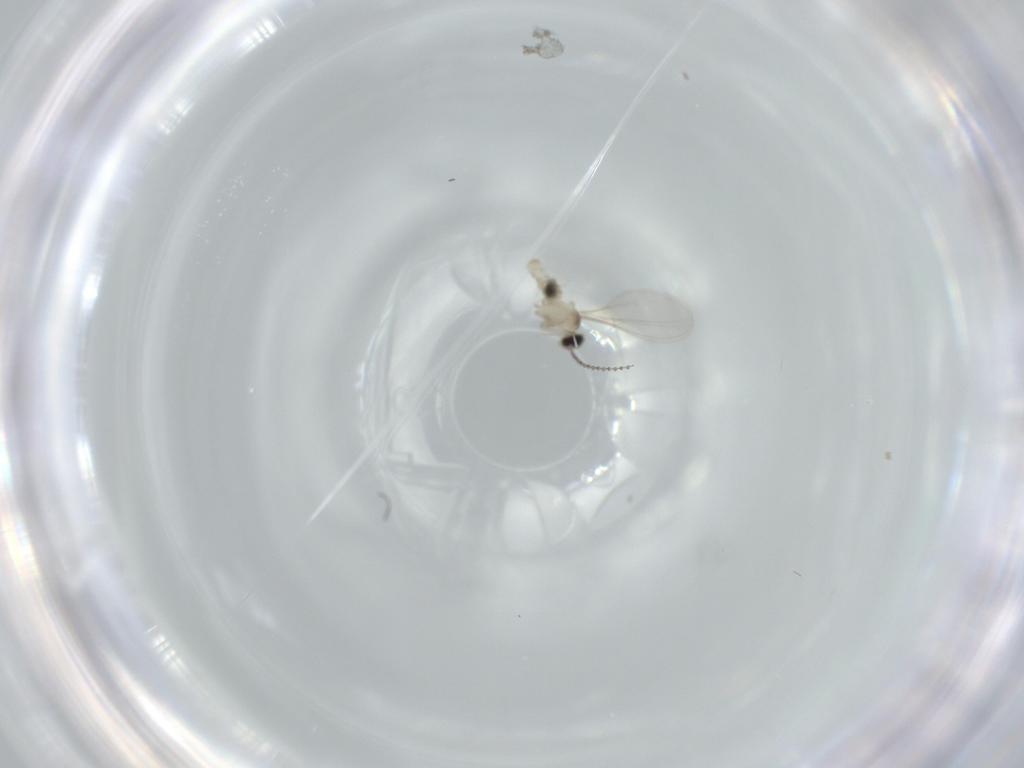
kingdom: Animalia
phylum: Arthropoda
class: Insecta
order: Diptera
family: Cecidomyiidae
